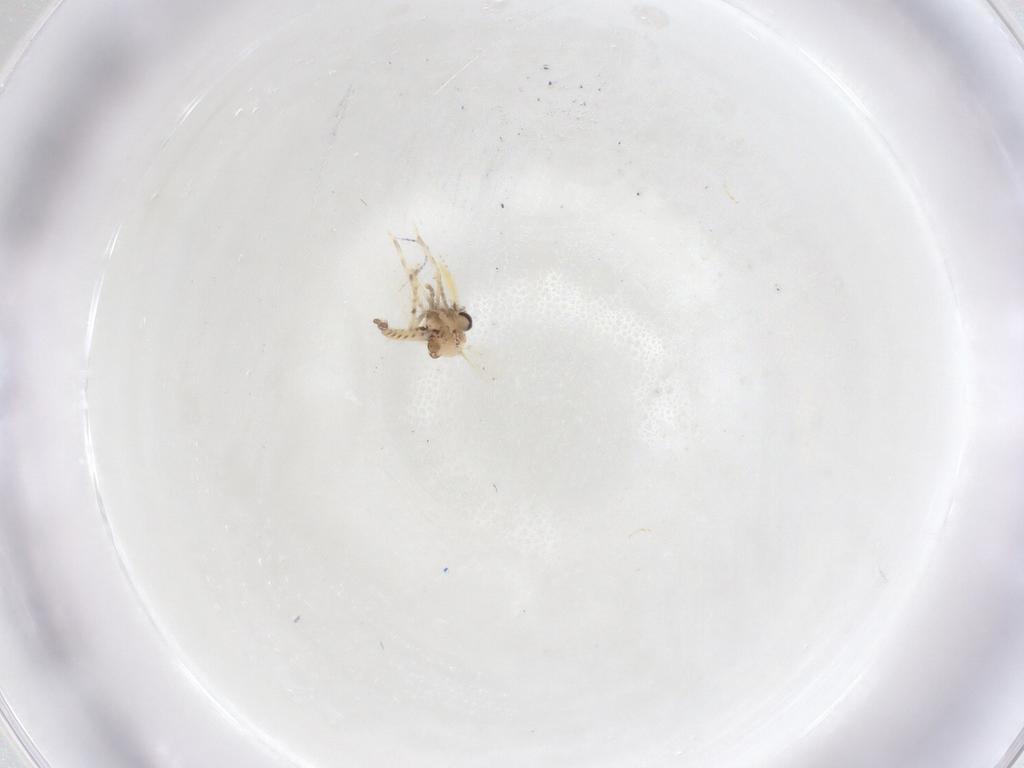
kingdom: Animalia
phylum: Arthropoda
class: Insecta
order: Diptera
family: Ceratopogonidae
